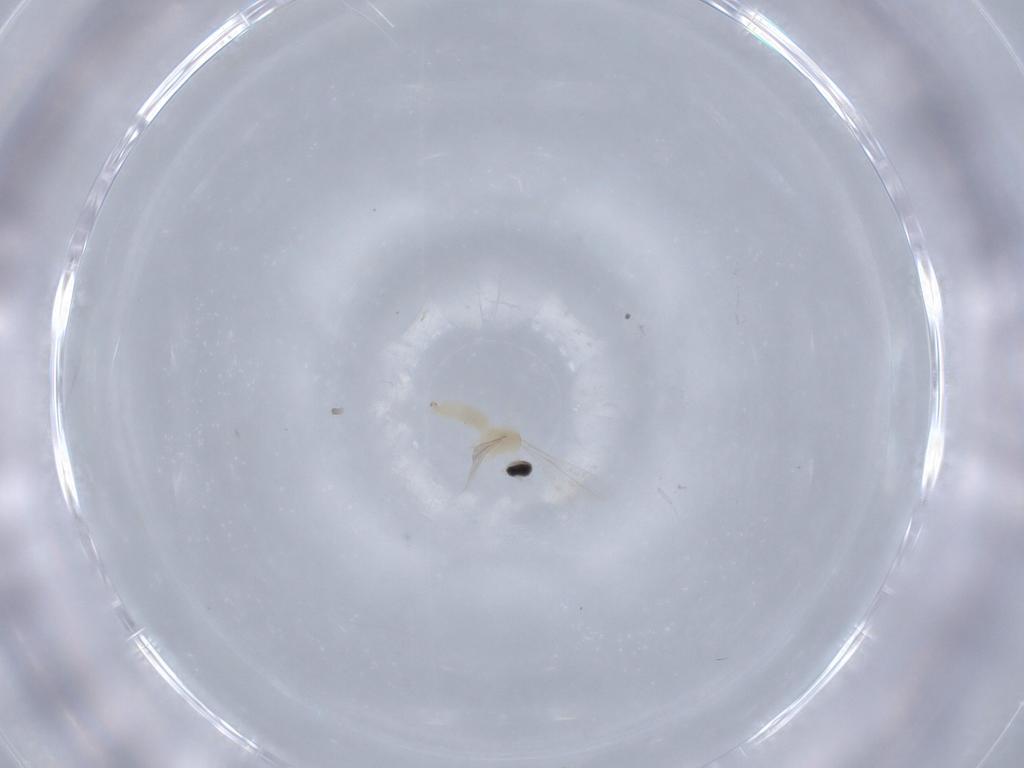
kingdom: Animalia
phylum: Arthropoda
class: Insecta
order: Diptera
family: Cecidomyiidae
